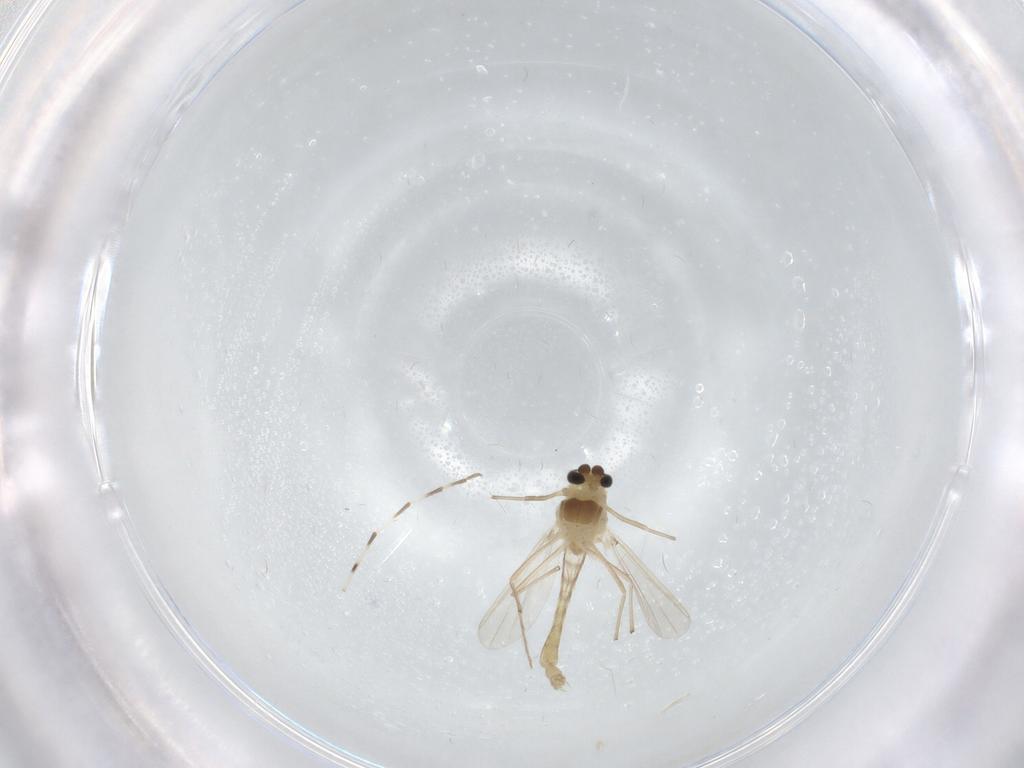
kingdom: Animalia
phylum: Arthropoda
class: Insecta
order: Diptera
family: Chironomidae
